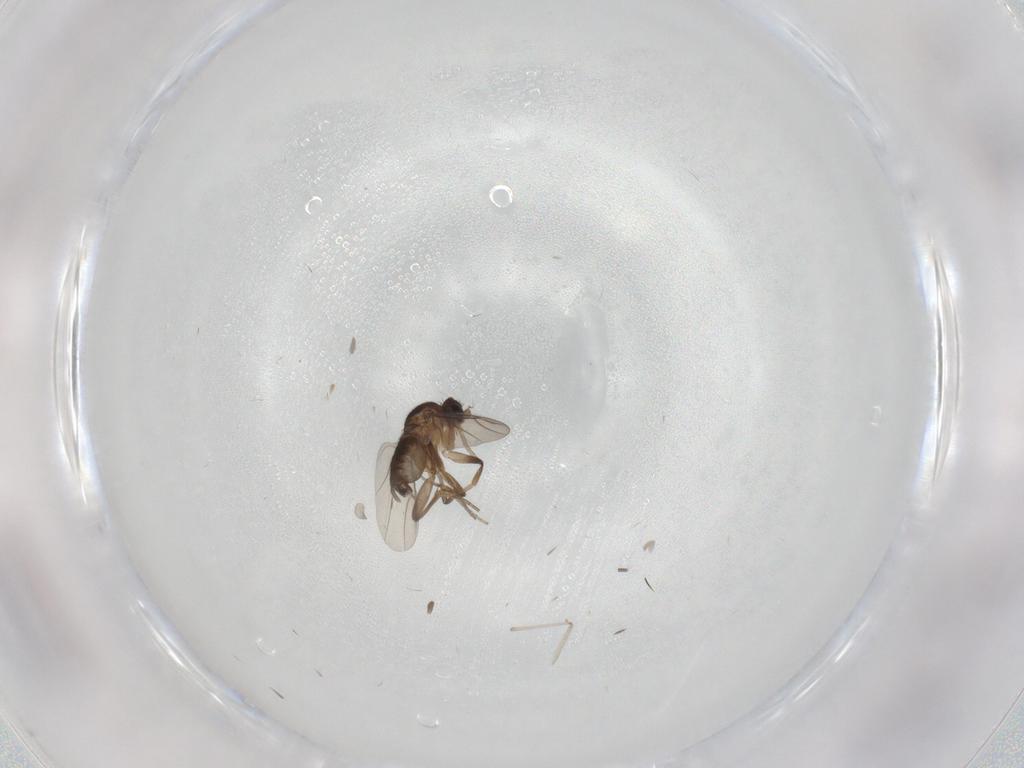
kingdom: Animalia
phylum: Arthropoda
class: Insecta
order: Diptera
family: Cecidomyiidae
